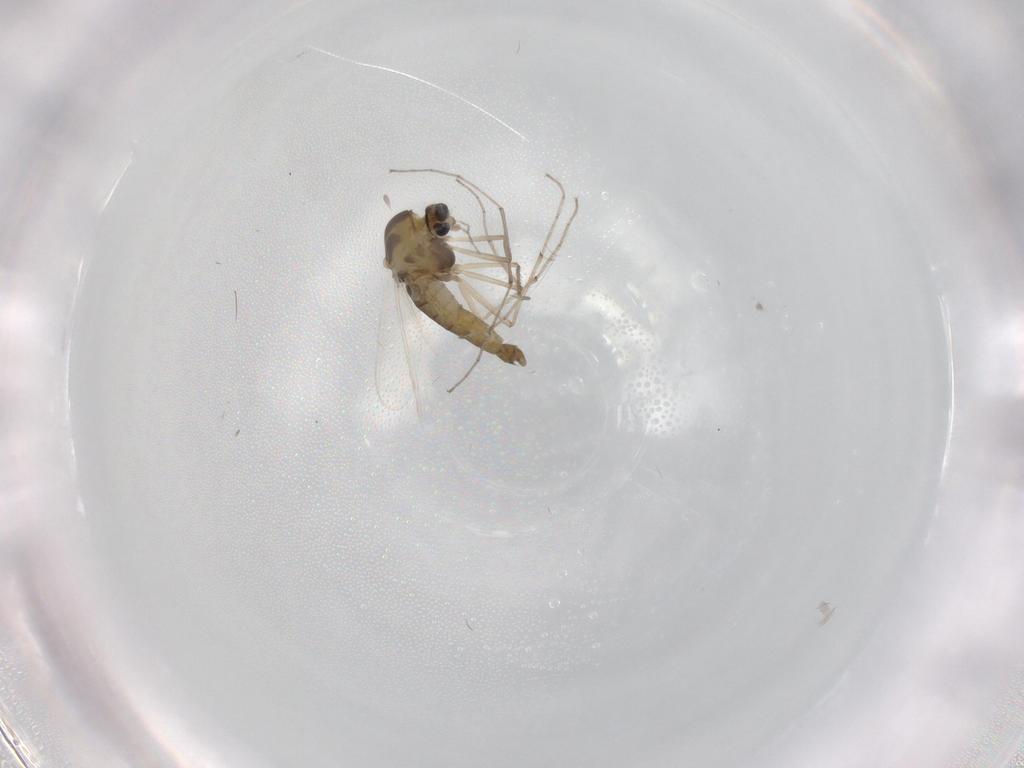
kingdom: Animalia
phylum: Arthropoda
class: Insecta
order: Diptera
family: Chironomidae
